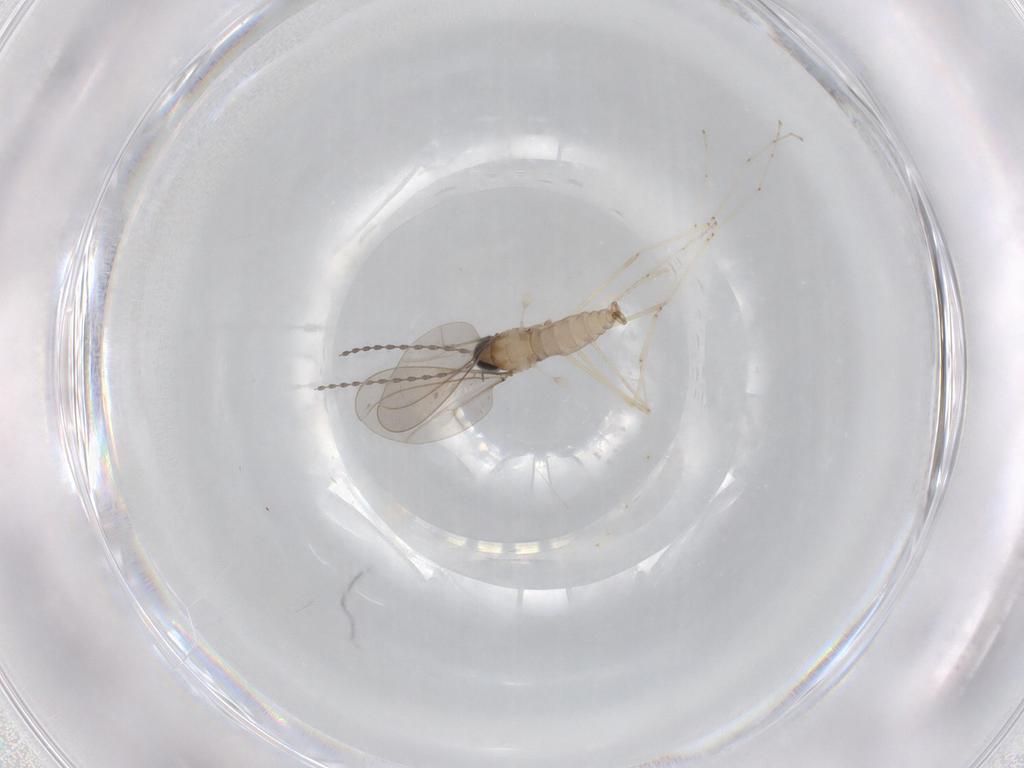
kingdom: Animalia
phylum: Arthropoda
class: Insecta
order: Diptera
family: Cecidomyiidae
